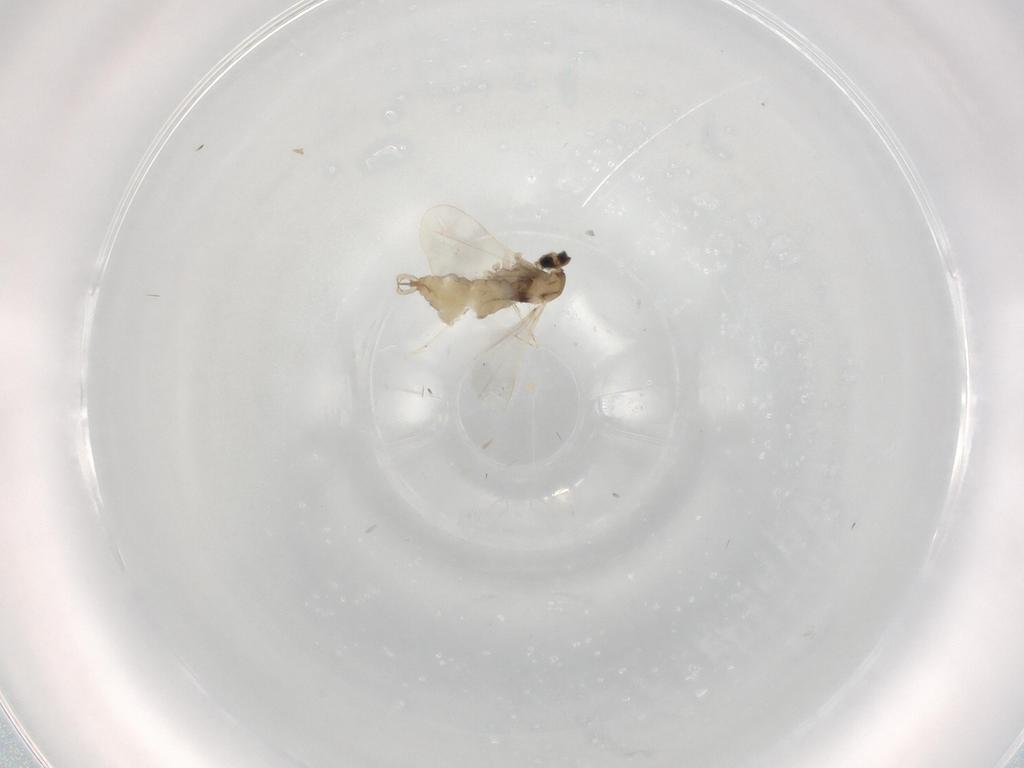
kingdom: Animalia
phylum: Arthropoda
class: Insecta
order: Diptera
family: Cecidomyiidae
